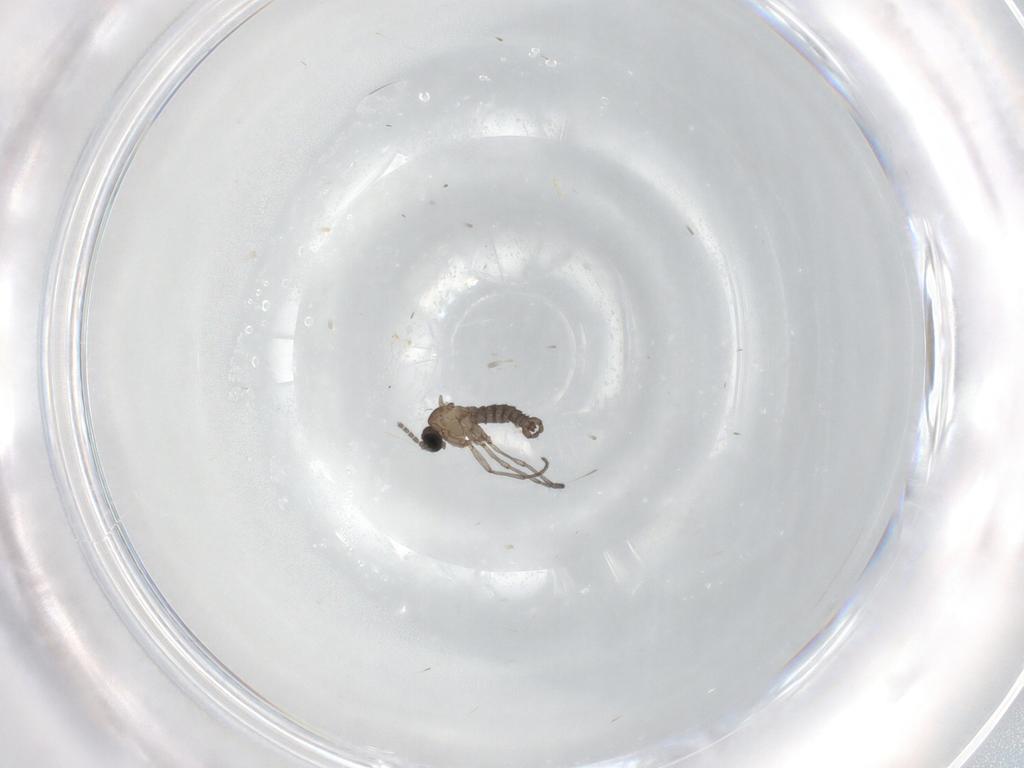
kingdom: Animalia
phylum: Arthropoda
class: Insecta
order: Diptera
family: Sciaridae
